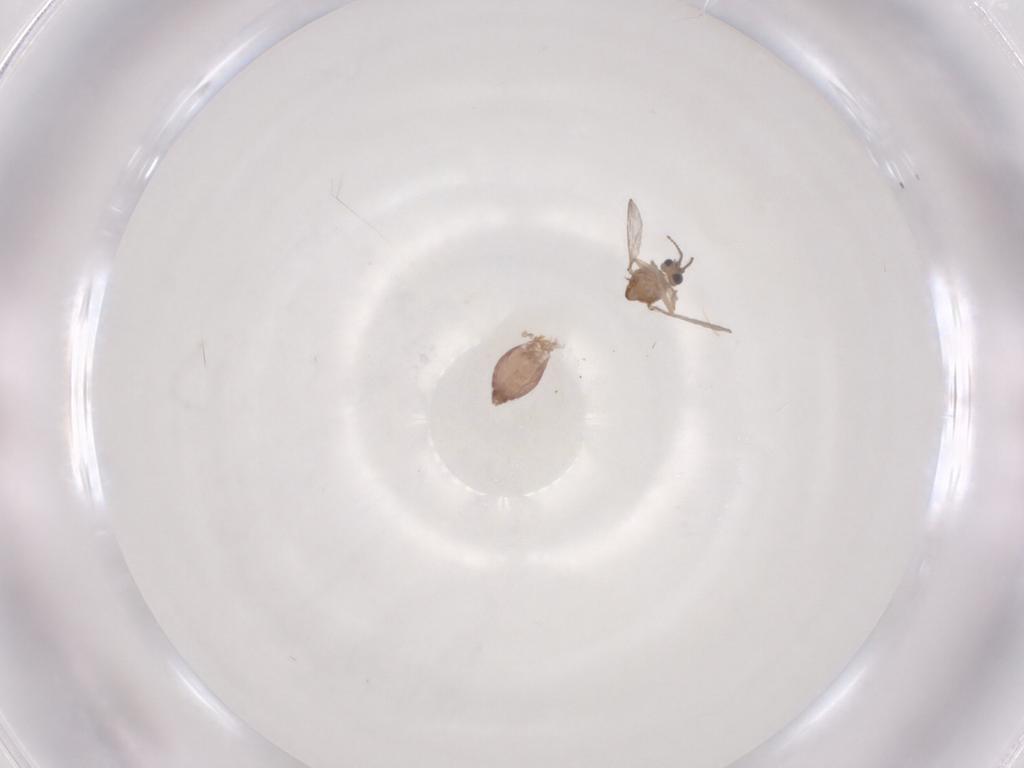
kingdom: Animalia
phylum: Arthropoda
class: Insecta
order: Diptera
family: Ceratopogonidae
